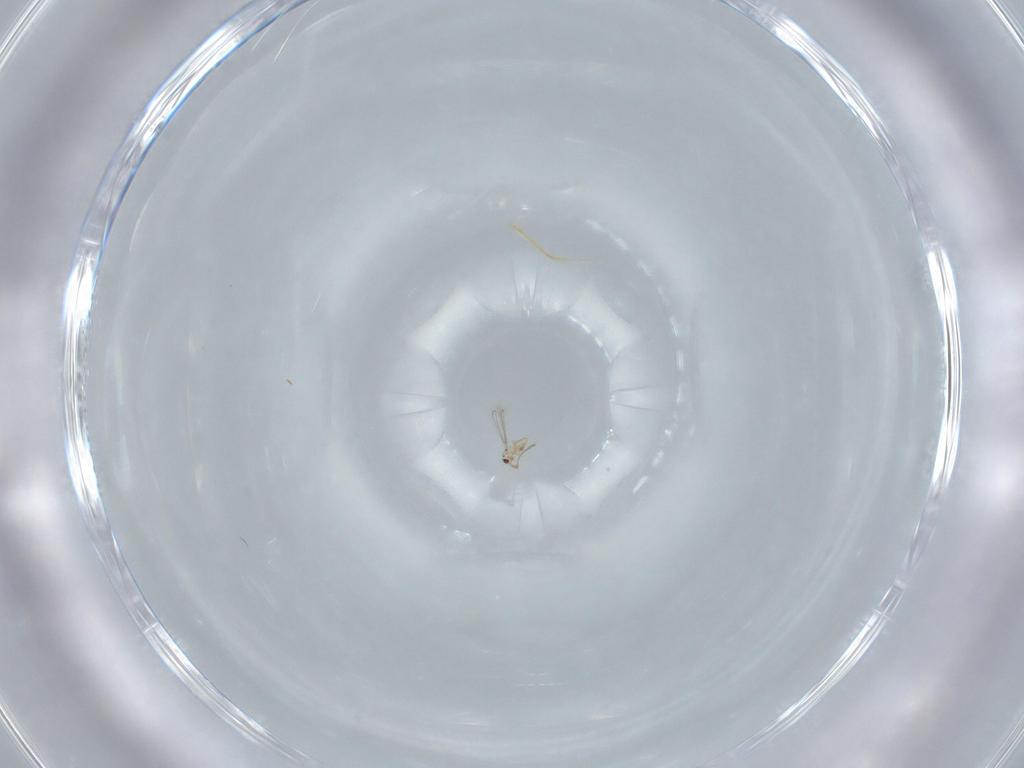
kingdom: Animalia
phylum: Arthropoda
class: Insecta
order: Hymenoptera
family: Mymaridae
